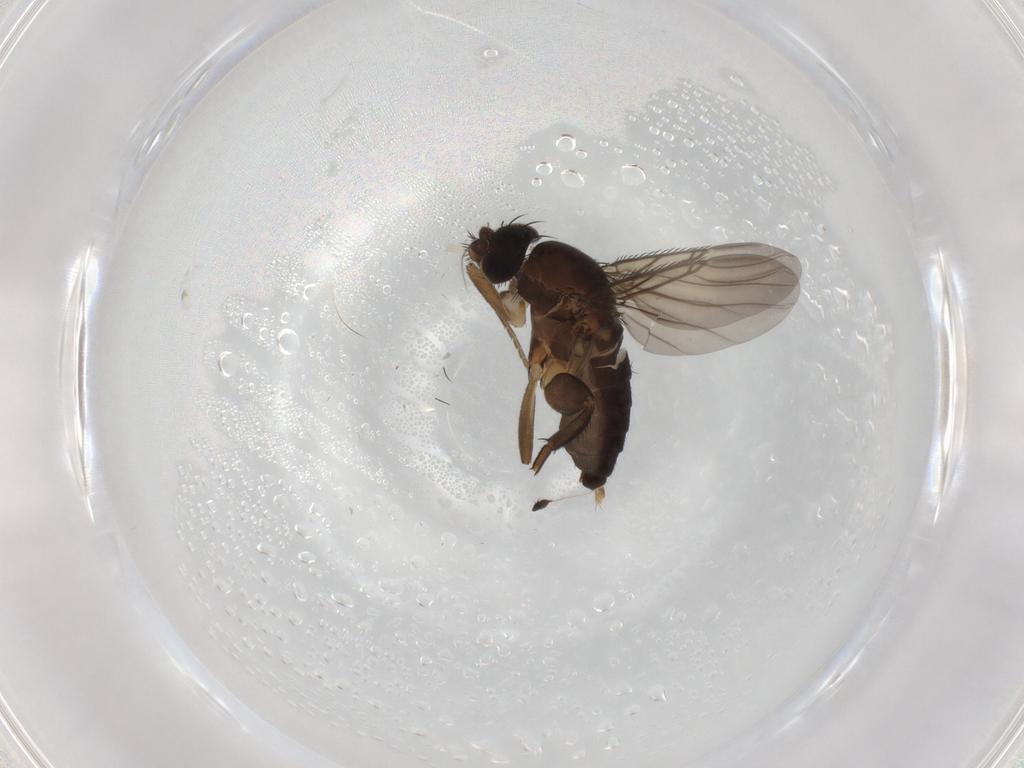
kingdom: Animalia
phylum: Arthropoda
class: Insecta
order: Diptera
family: Phoridae
